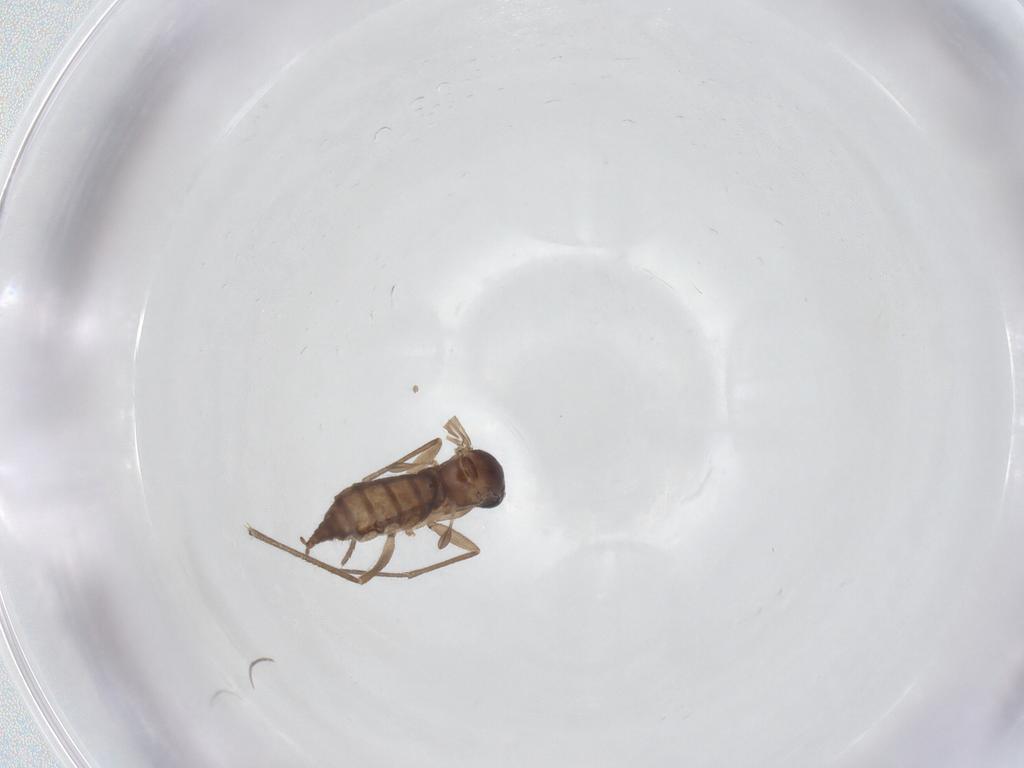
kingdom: Animalia
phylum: Arthropoda
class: Insecta
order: Diptera
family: Sciaridae
